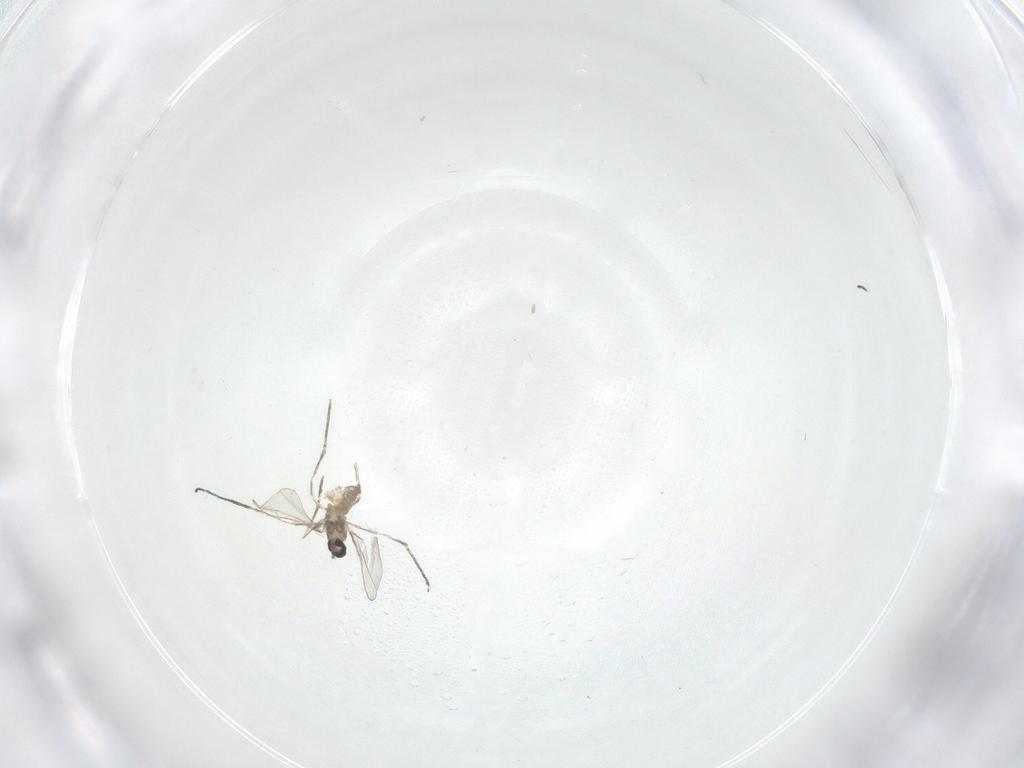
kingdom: Animalia
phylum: Arthropoda
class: Insecta
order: Diptera
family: Cecidomyiidae
